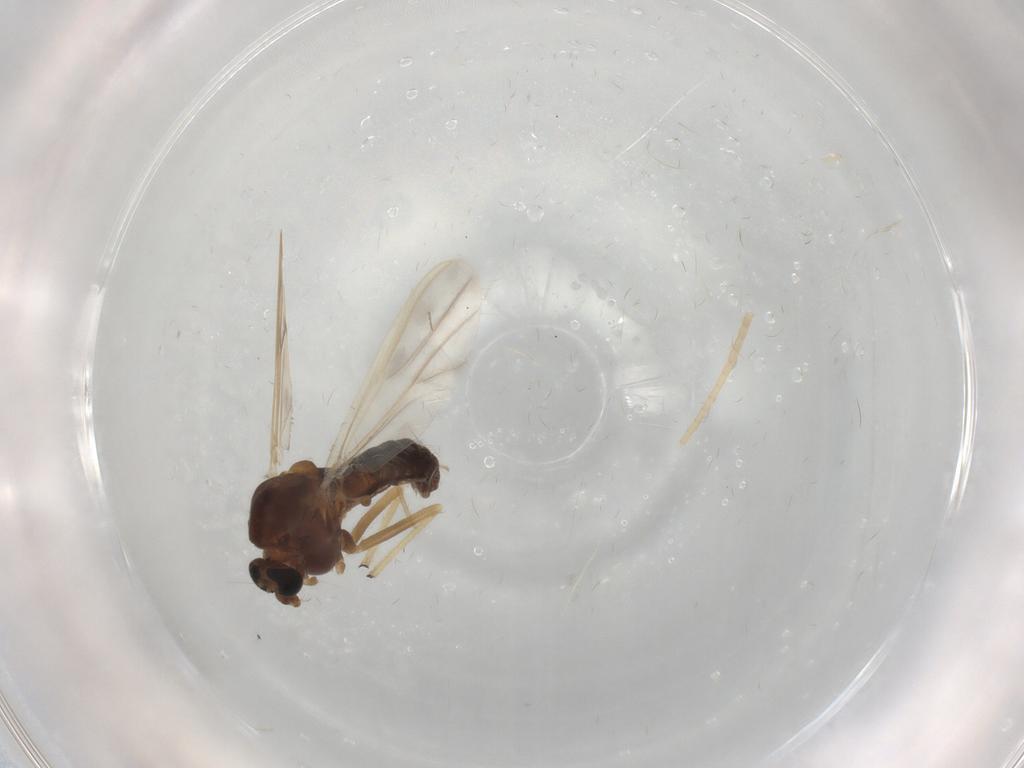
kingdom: Animalia
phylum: Arthropoda
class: Insecta
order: Diptera
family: Chironomidae
